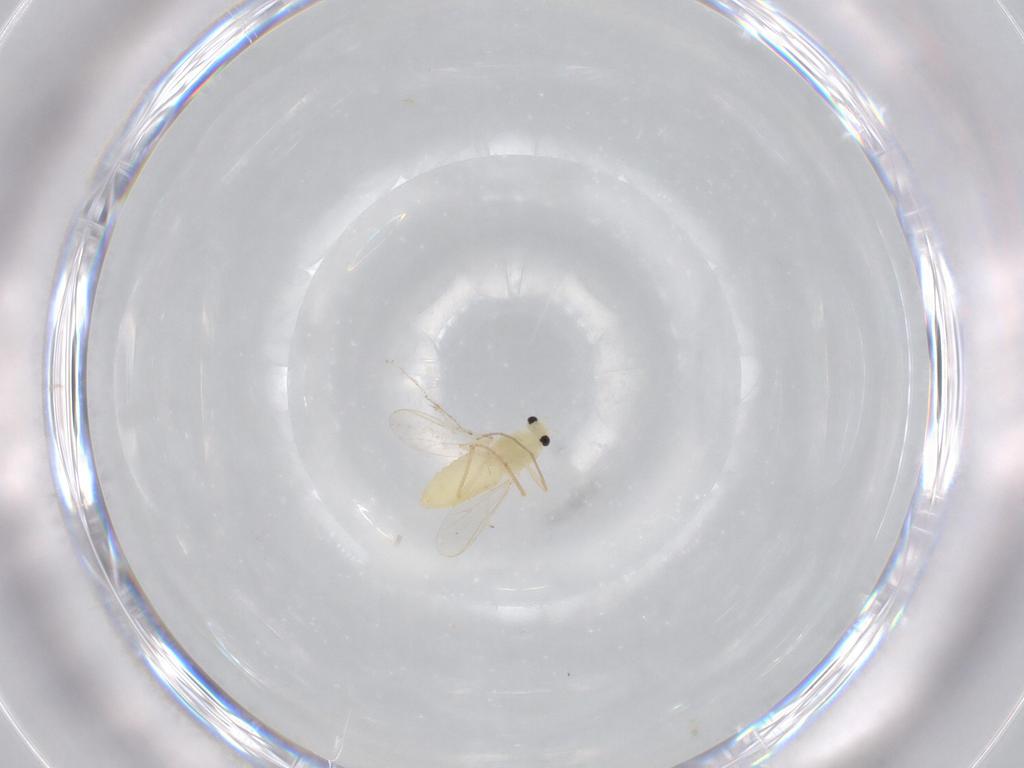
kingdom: Animalia
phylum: Arthropoda
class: Insecta
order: Diptera
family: Chironomidae
